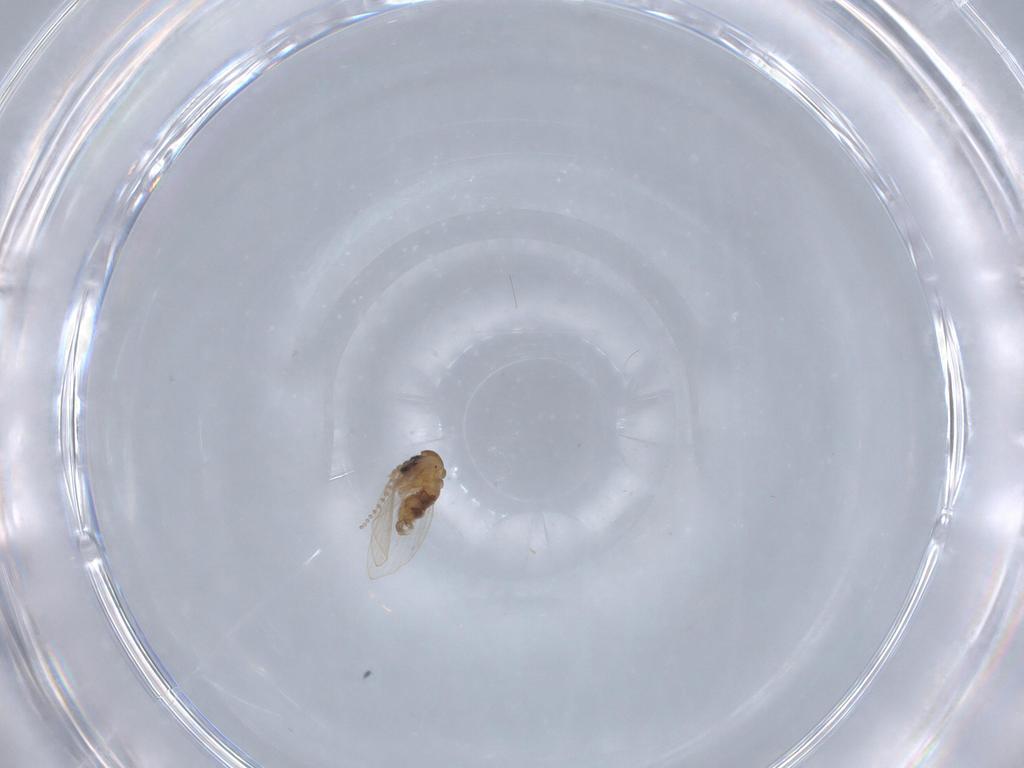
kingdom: Animalia
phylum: Arthropoda
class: Insecta
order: Diptera
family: Psychodidae
